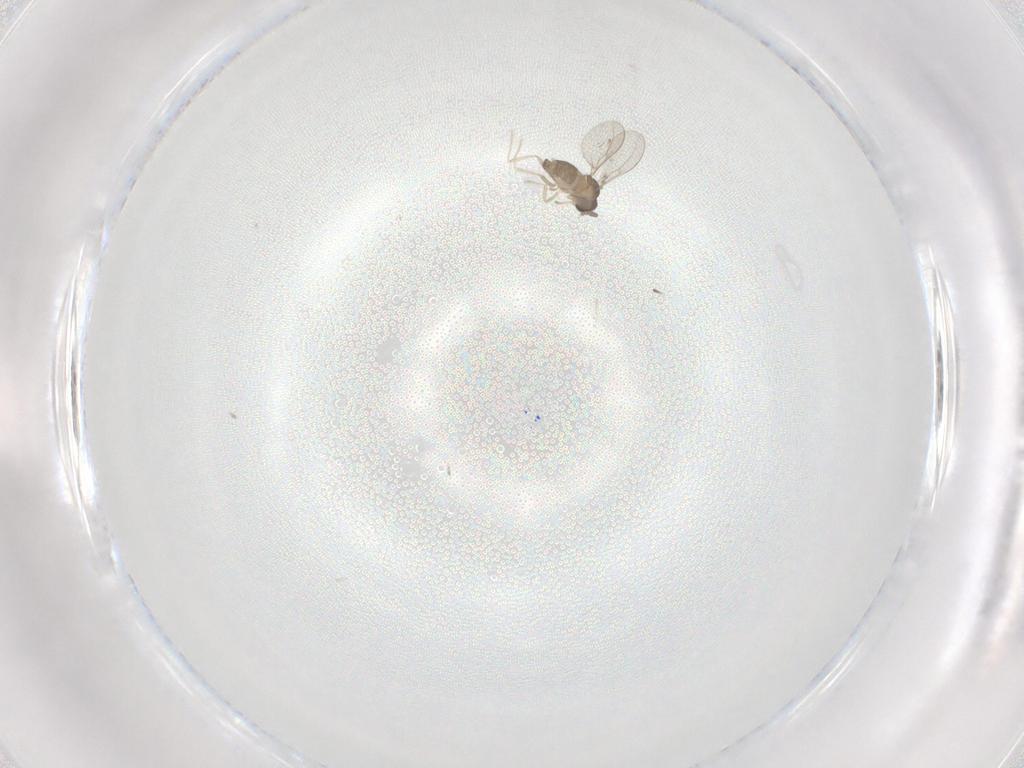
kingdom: Animalia
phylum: Arthropoda
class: Insecta
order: Diptera
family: Cecidomyiidae
